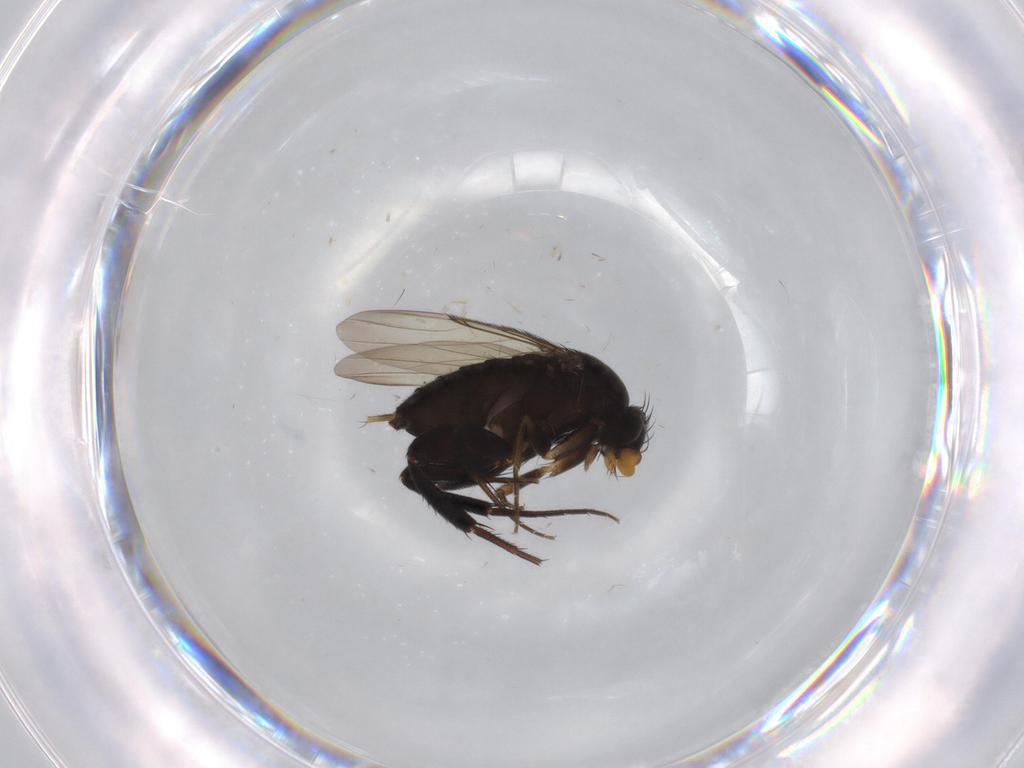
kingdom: Animalia
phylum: Arthropoda
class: Insecta
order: Diptera
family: Phoridae
